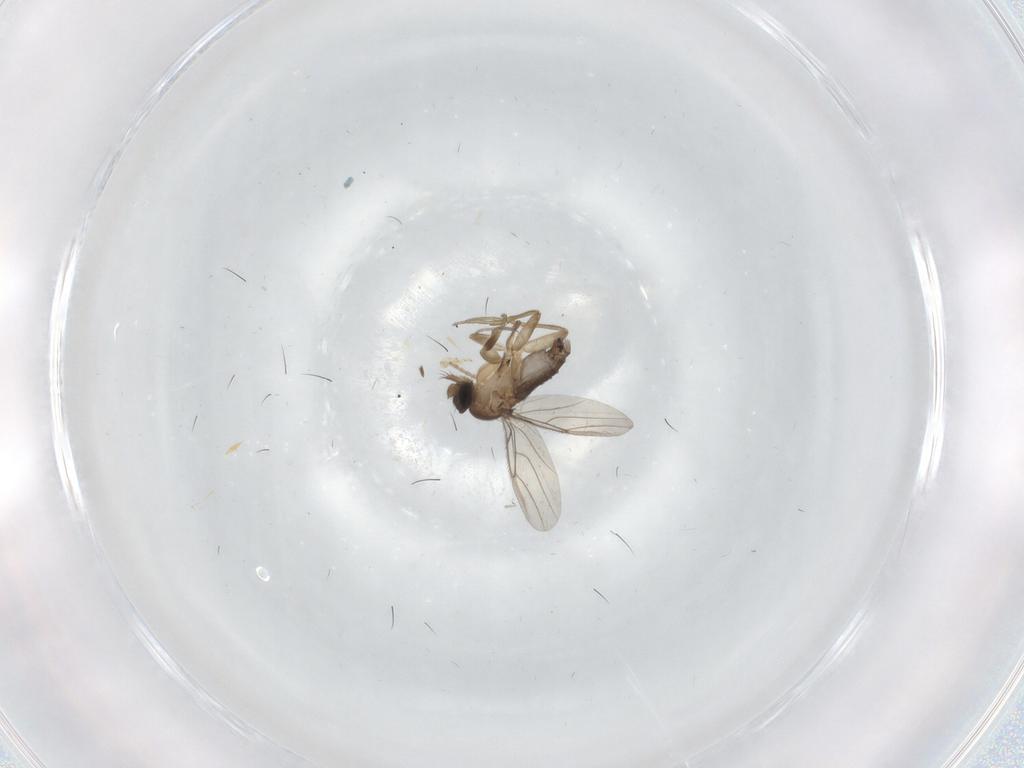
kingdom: Animalia
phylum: Arthropoda
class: Insecta
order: Diptera
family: Phoridae
